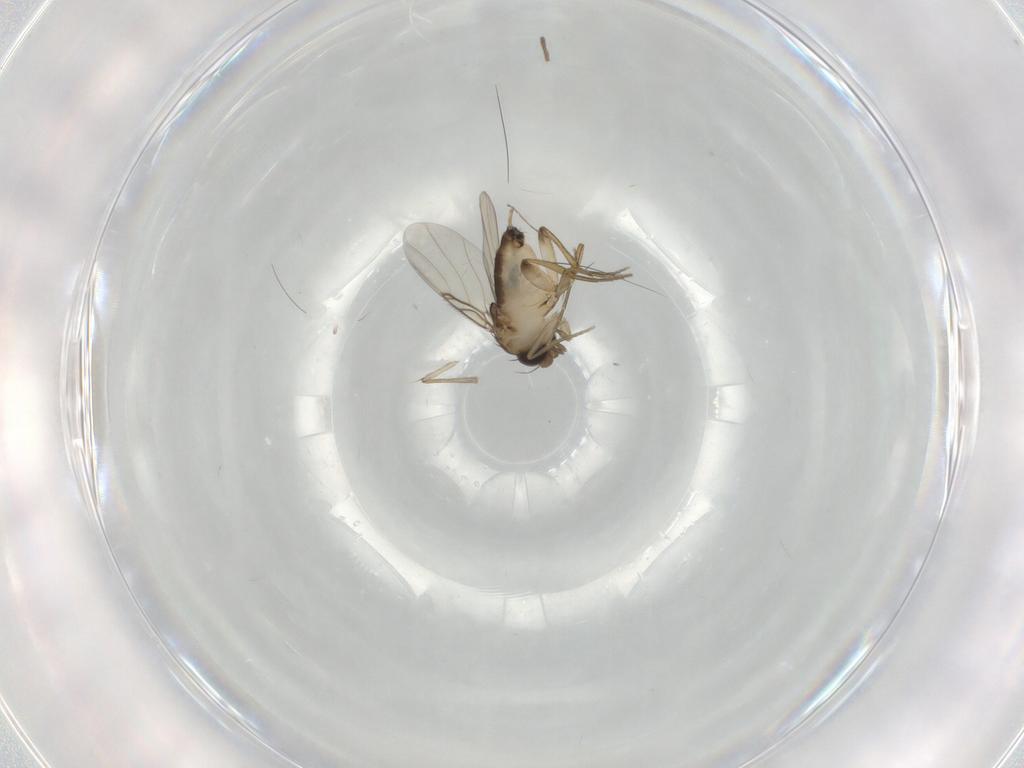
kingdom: Animalia
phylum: Arthropoda
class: Insecta
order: Diptera
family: Phoridae
